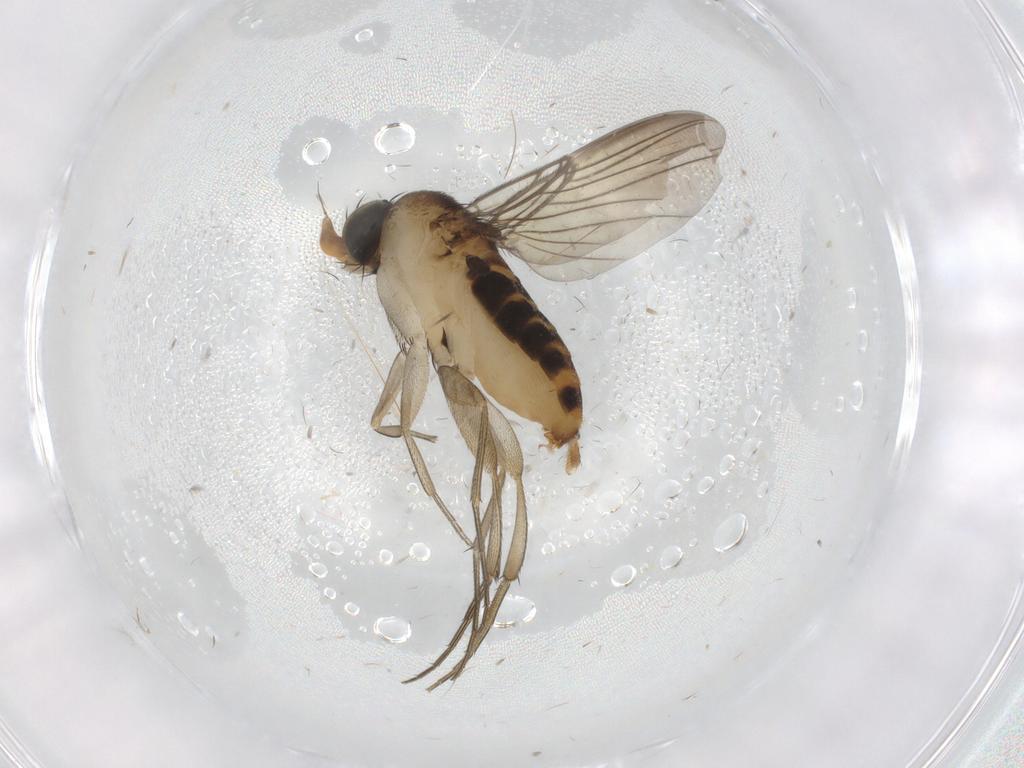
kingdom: Animalia
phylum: Arthropoda
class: Insecta
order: Diptera
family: Phoridae
